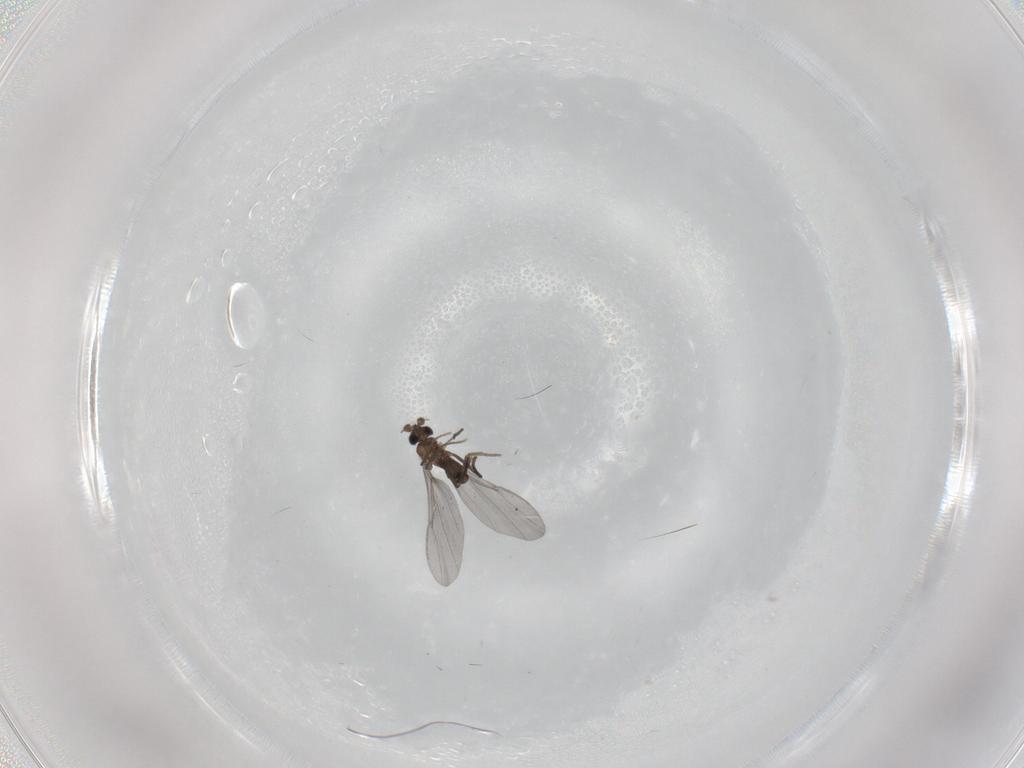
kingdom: Animalia
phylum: Arthropoda
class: Insecta
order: Diptera
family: Phoridae
